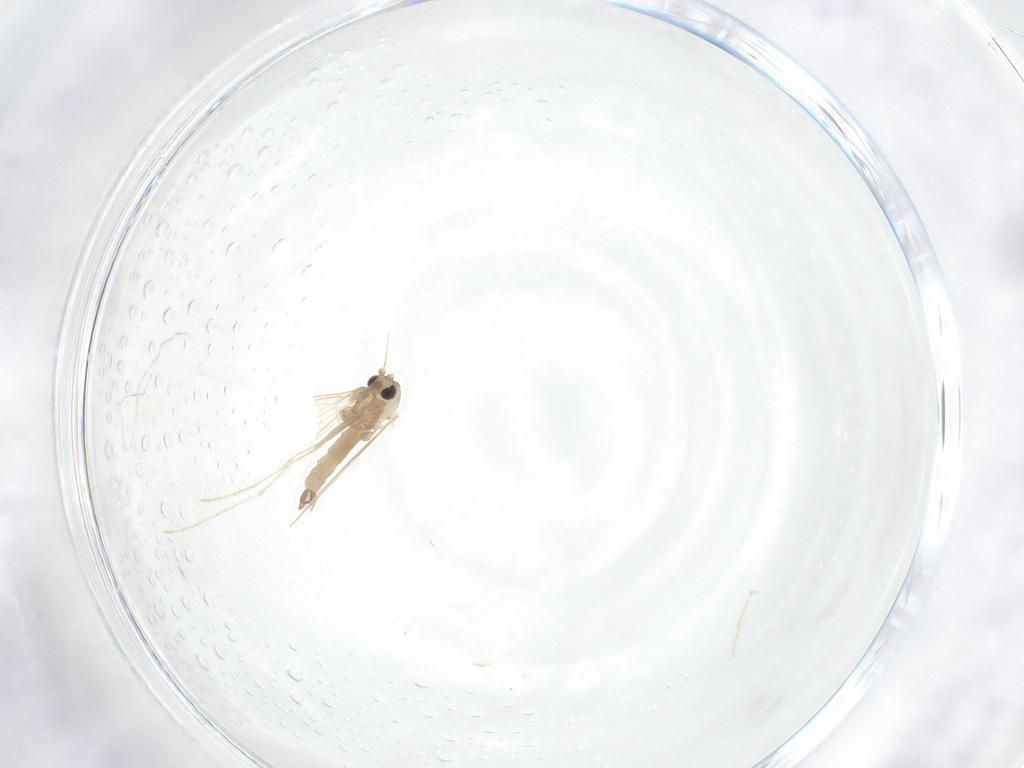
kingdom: Animalia
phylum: Arthropoda
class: Insecta
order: Diptera
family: Psychodidae
